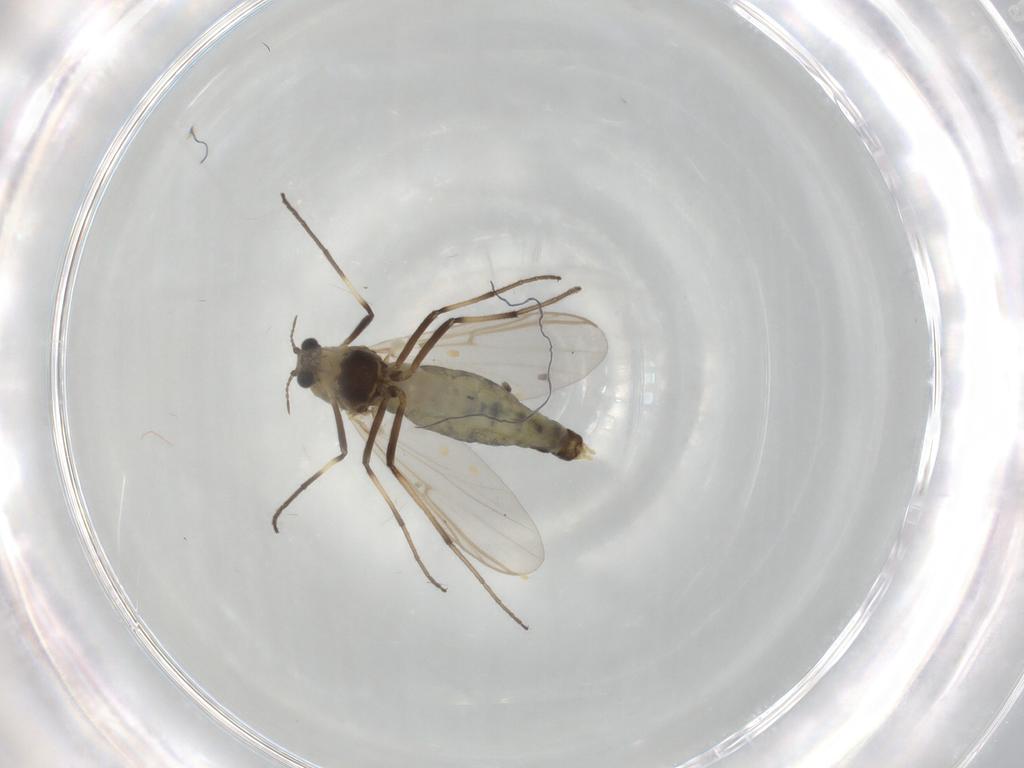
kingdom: Animalia
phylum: Arthropoda
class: Insecta
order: Diptera
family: Chironomidae
